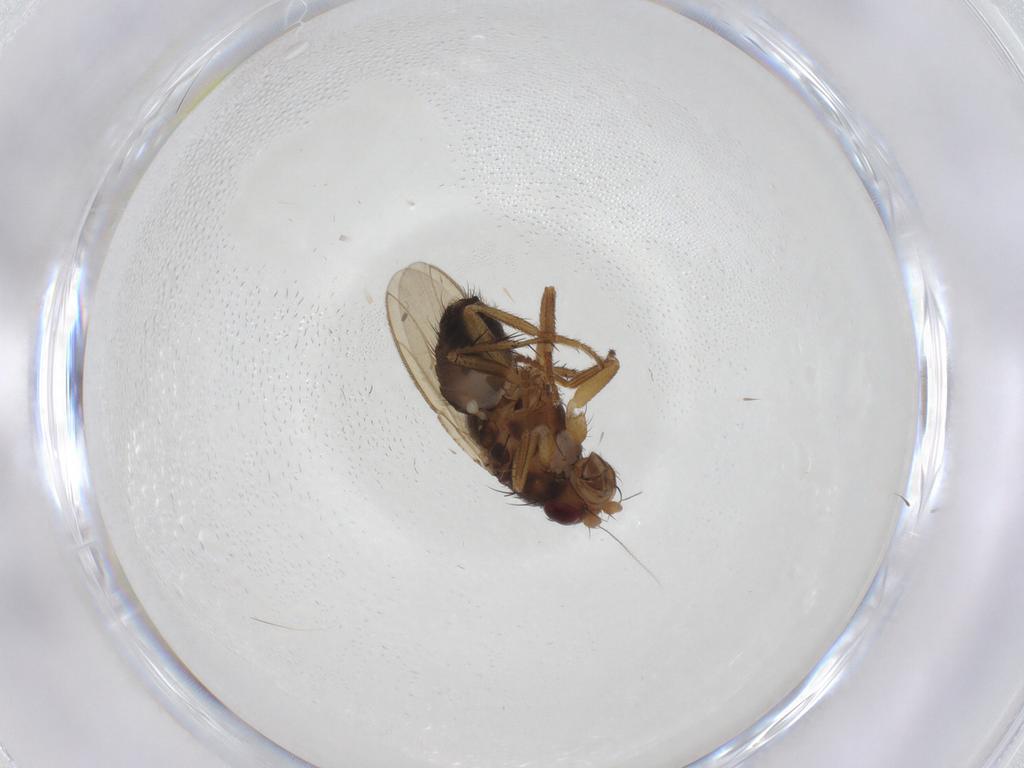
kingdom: Animalia
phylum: Arthropoda
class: Insecta
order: Diptera
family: Sphaeroceridae
